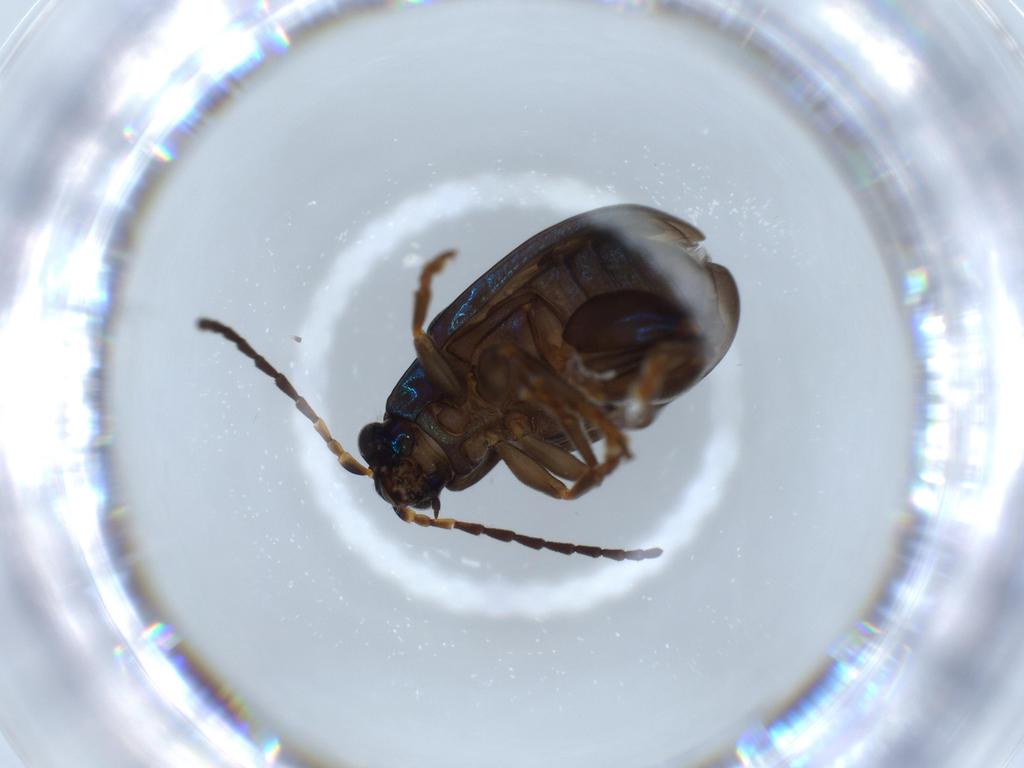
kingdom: Animalia
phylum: Arthropoda
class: Insecta
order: Coleoptera
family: Chrysomelidae
